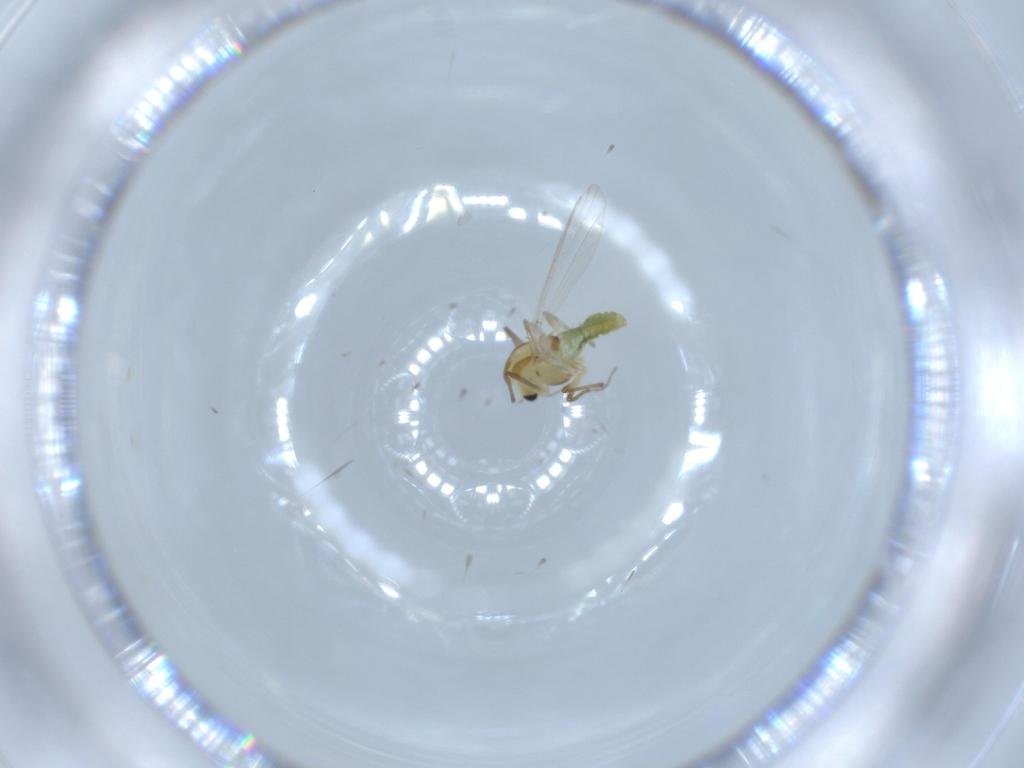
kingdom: Animalia
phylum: Arthropoda
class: Insecta
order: Diptera
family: Chironomidae
